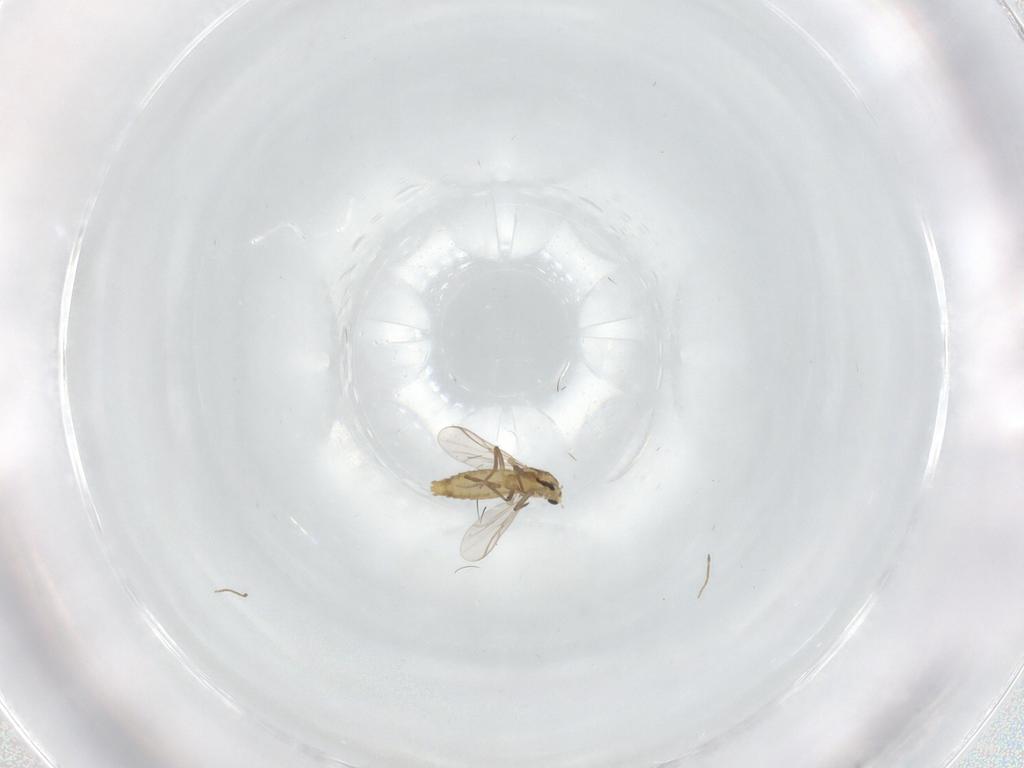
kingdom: Animalia
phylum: Arthropoda
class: Insecta
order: Diptera
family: Chironomidae
